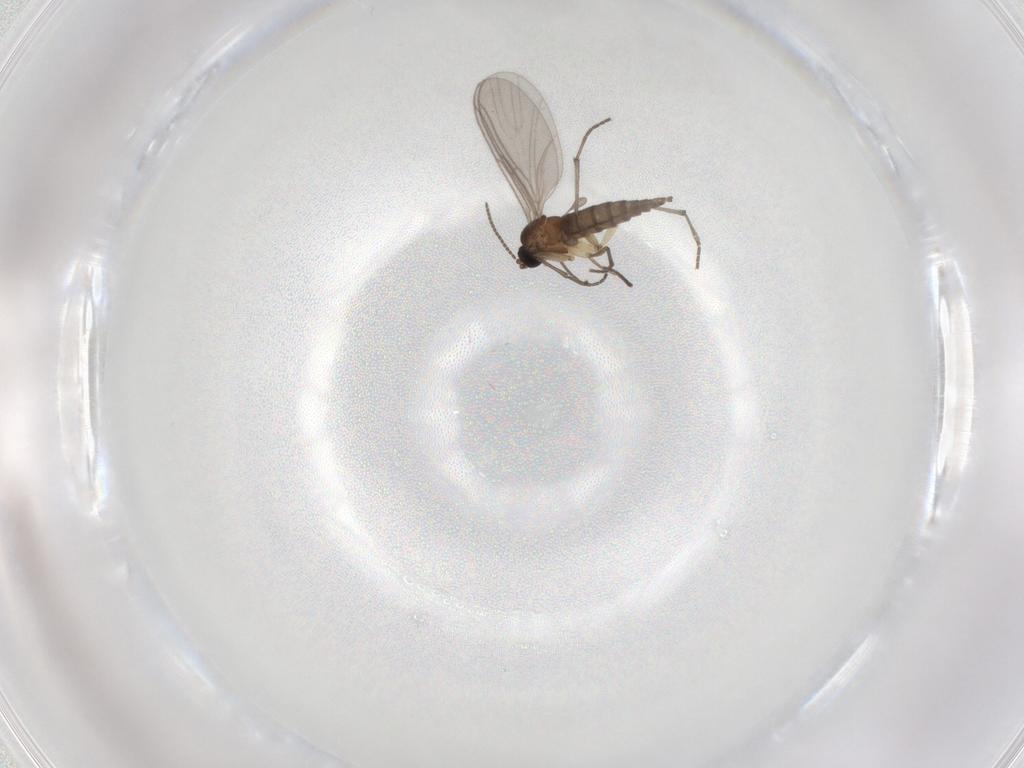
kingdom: Animalia
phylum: Arthropoda
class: Insecta
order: Diptera
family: Sciaridae
